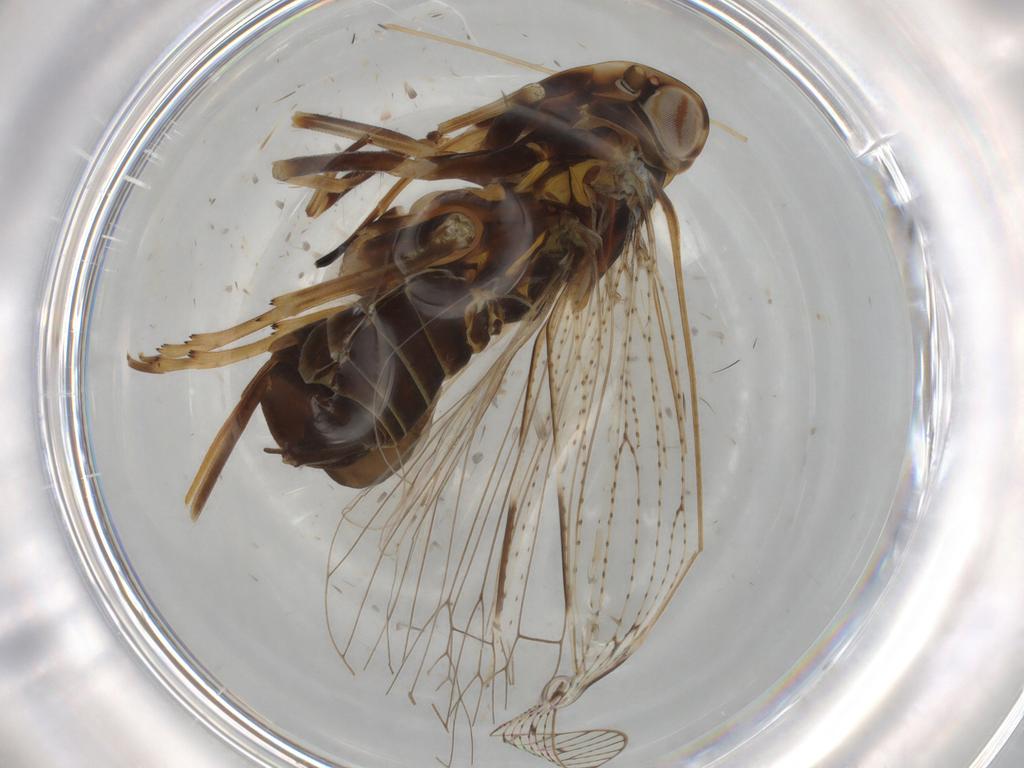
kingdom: Animalia
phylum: Arthropoda
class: Insecta
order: Hemiptera
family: Cixiidae
